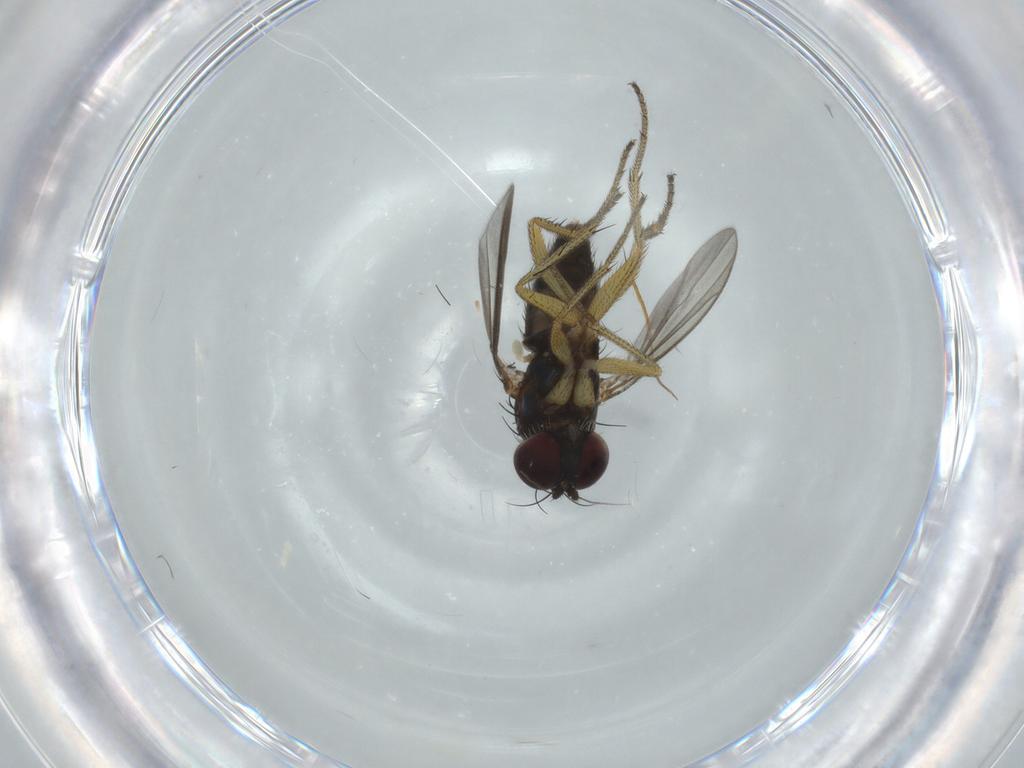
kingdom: Animalia
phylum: Arthropoda
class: Insecta
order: Diptera
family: Dolichopodidae
